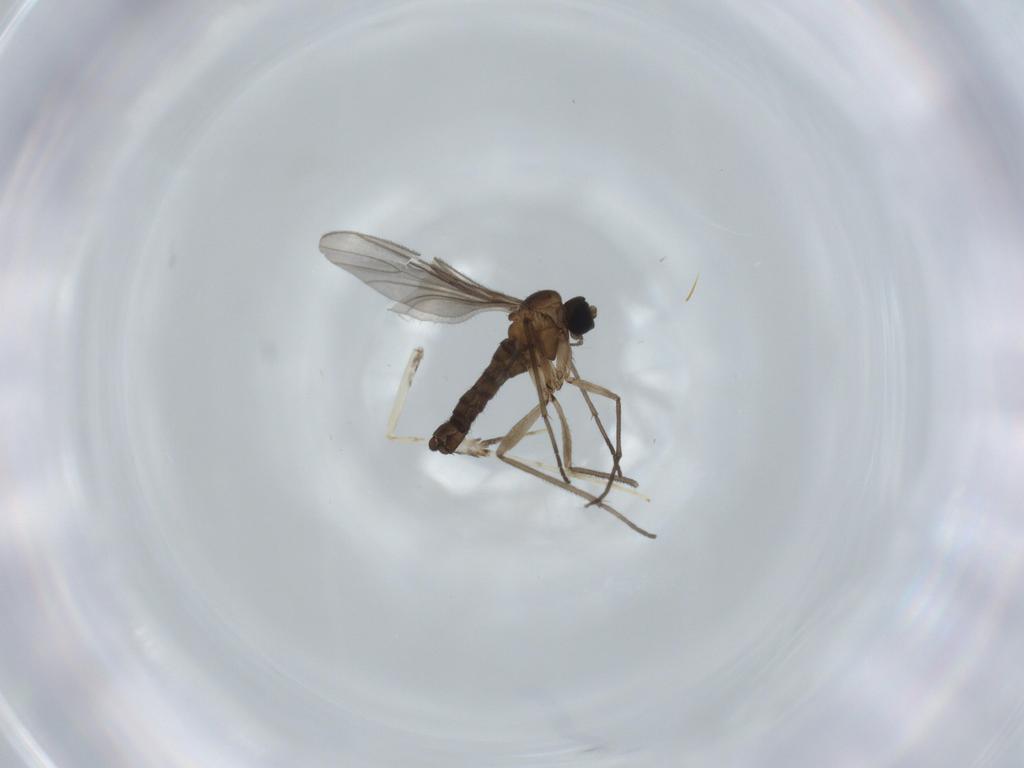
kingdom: Animalia
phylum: Arthropoda
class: Insecta
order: Diptera
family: Sciaridae
